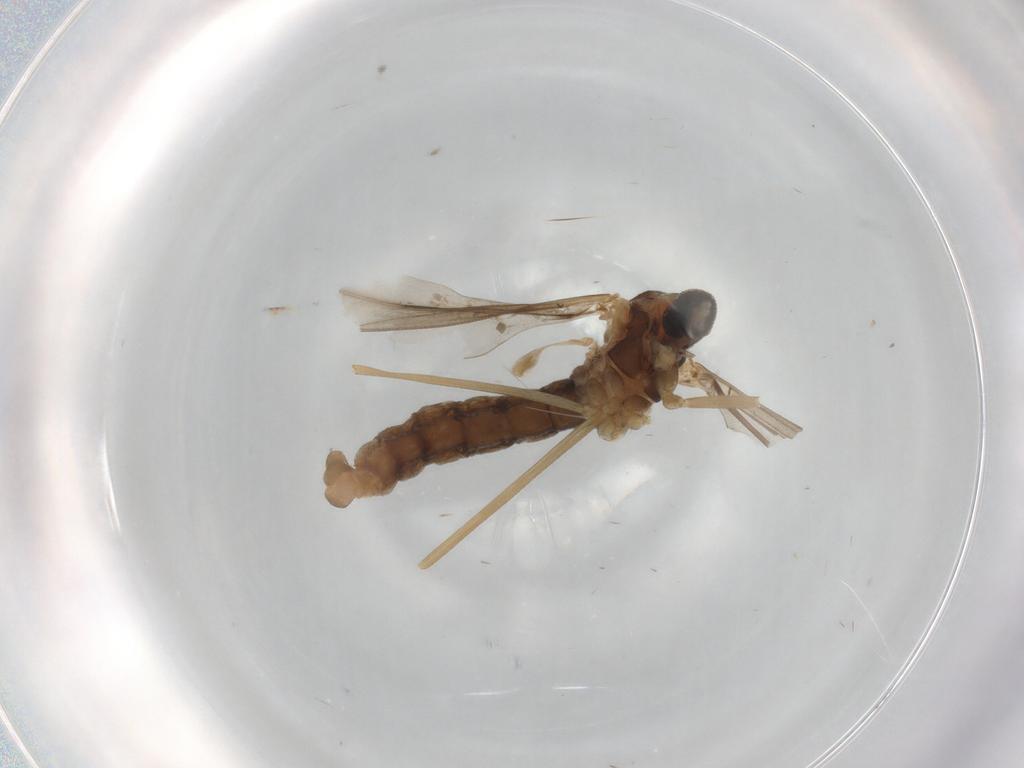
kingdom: Animalia
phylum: Arthropoda
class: Insecta
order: Diptera
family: Cecidomyiidae
